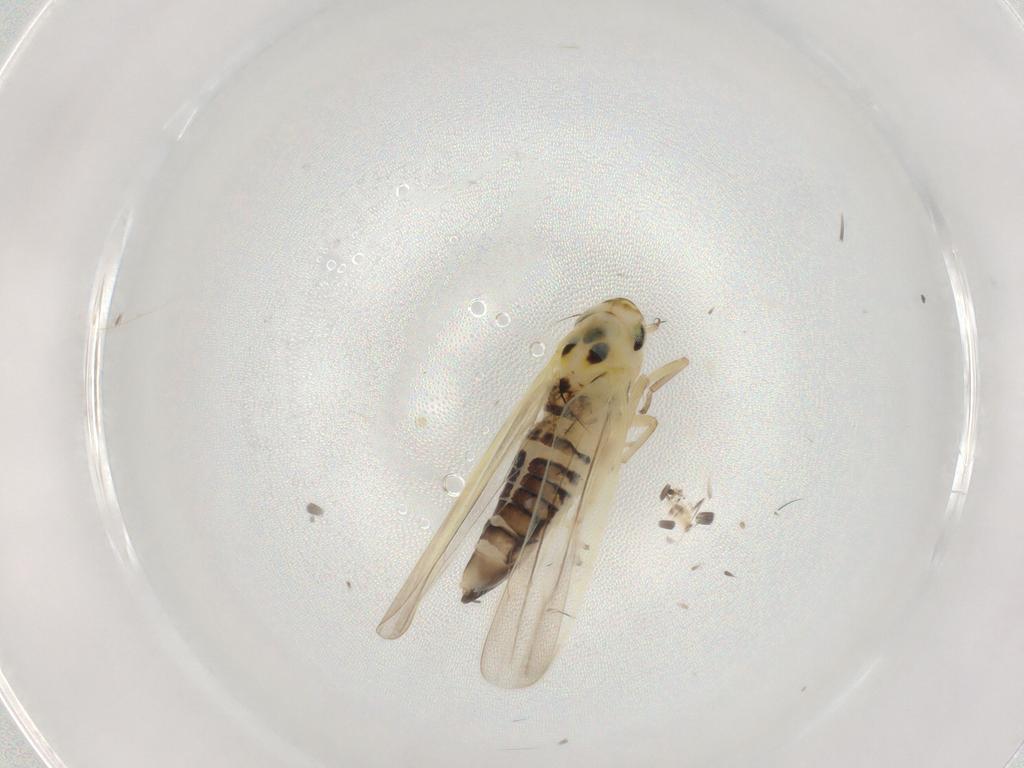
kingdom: Animalia
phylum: Arthropoda
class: Insecta
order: Hemiptera
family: Cicadellidae
